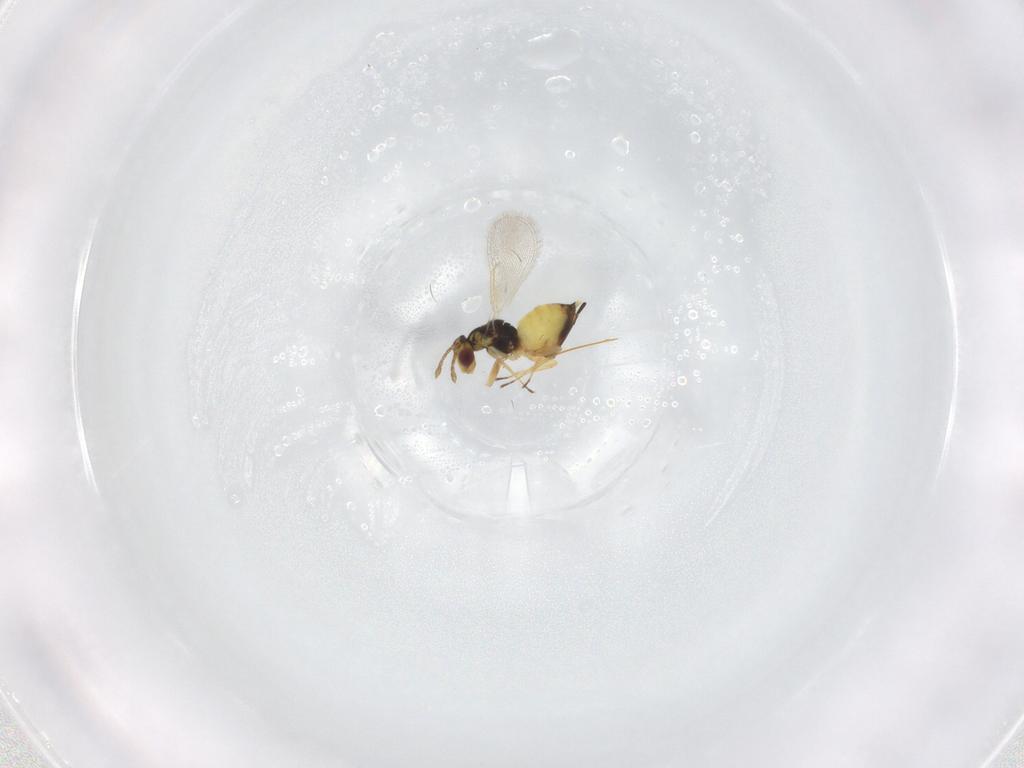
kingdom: Animalia
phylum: Arthropoda
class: Insecta
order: Hymenoptera
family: Eulophidae
